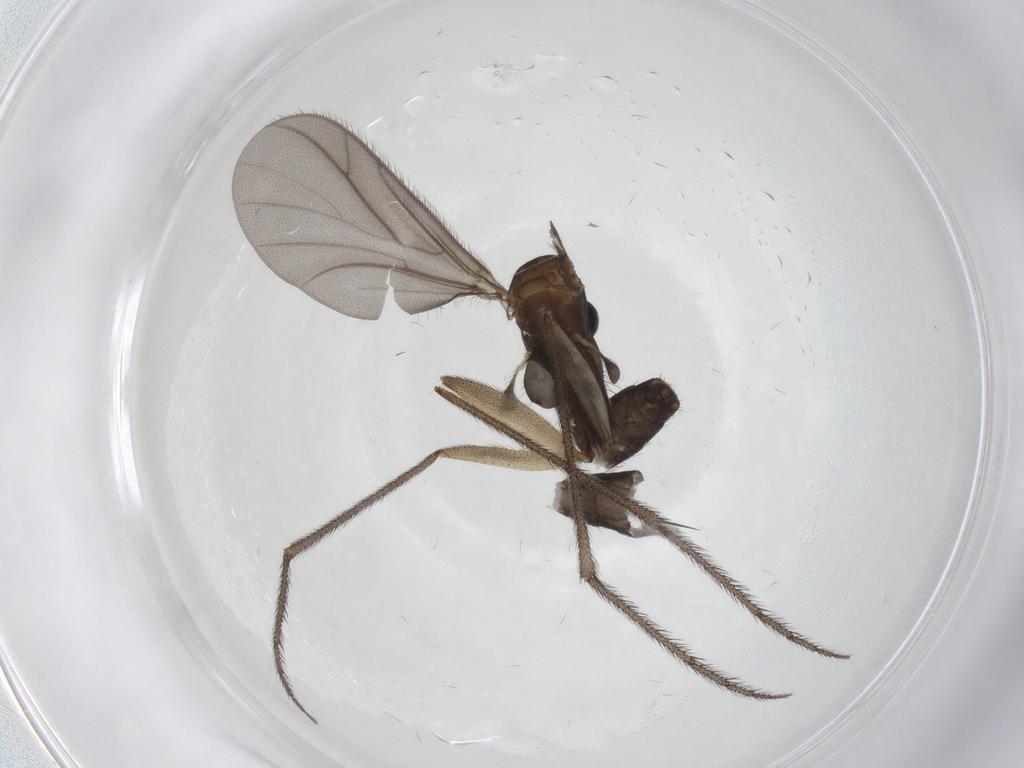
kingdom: Animalia
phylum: Arthropoda
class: Insecta
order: Diptera
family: Ditomyiidae
